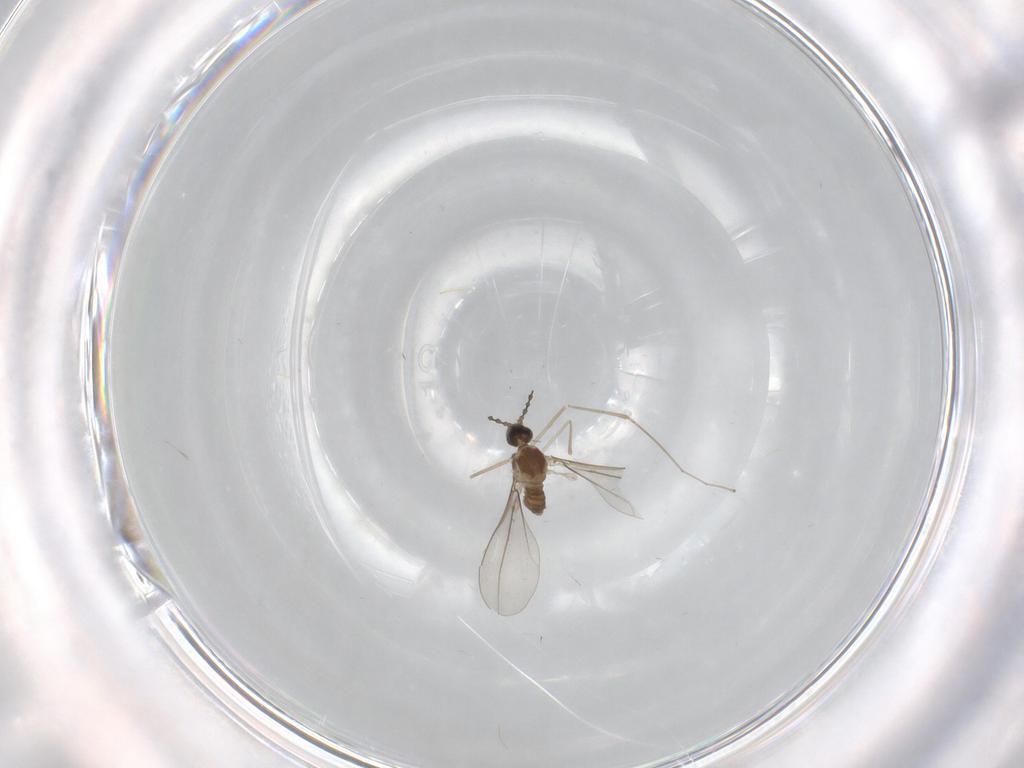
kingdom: Animalia
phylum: Arthropoda
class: Insecta
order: Diptera
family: Cecidomyiidae
